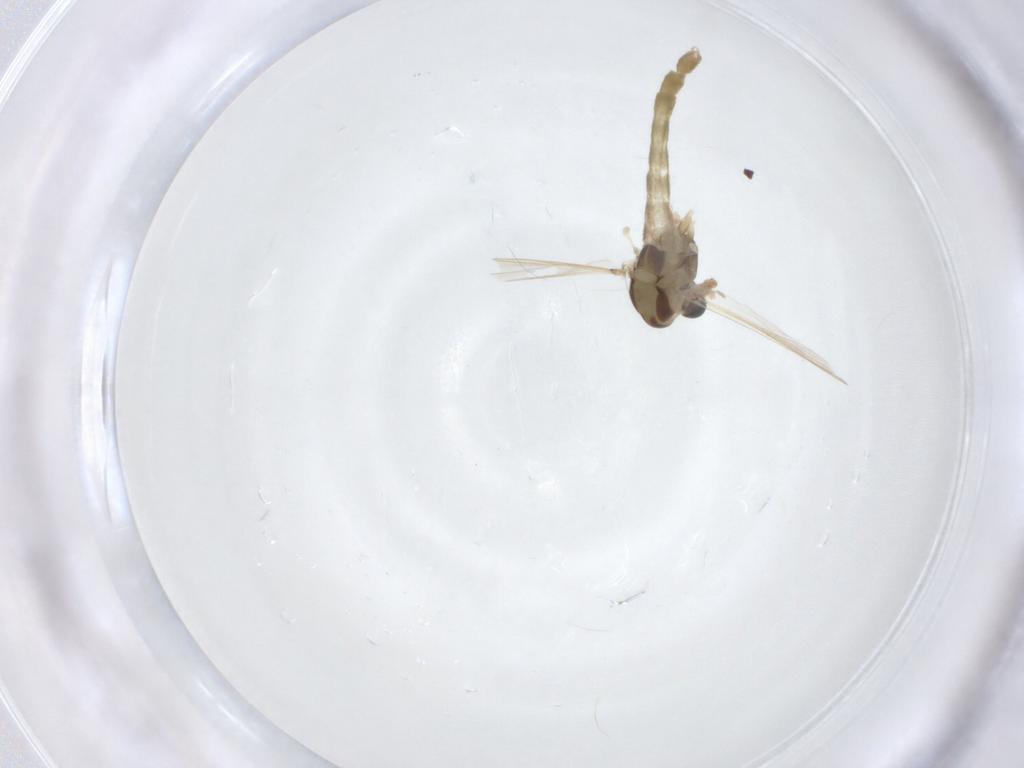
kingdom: Animalia
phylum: Arthropoda
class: Insecta
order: Diptera
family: Chironomidae
